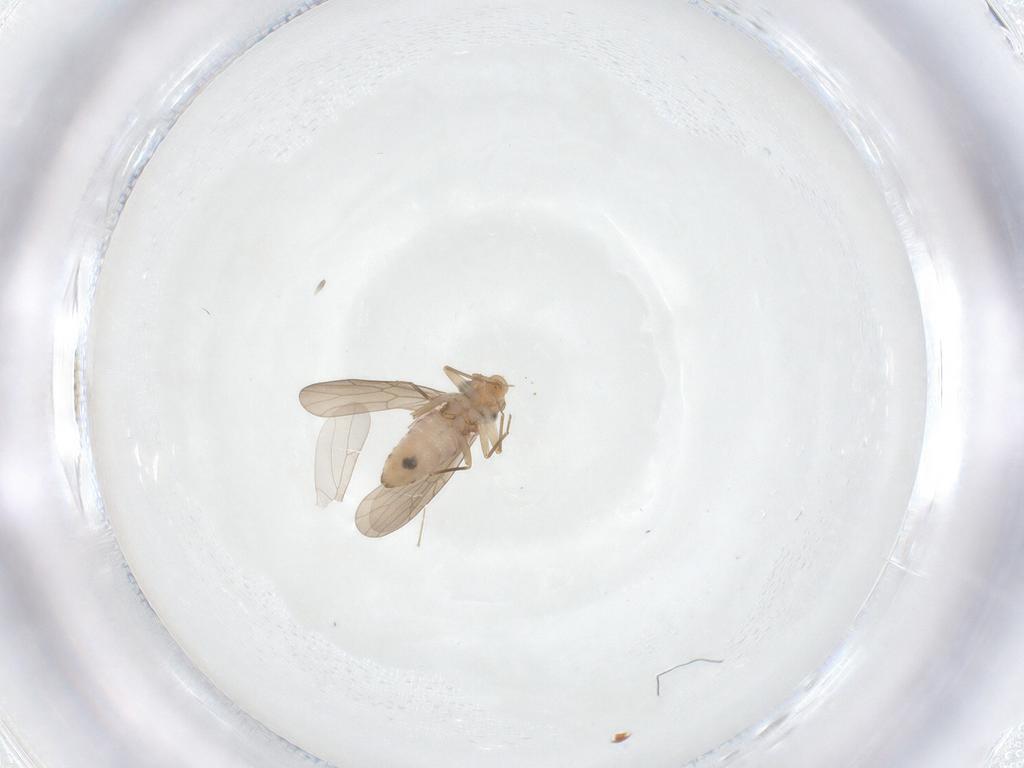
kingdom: Animalia
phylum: Arthropoda
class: Insecta
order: Psocodea
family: Lepidopsocidae
